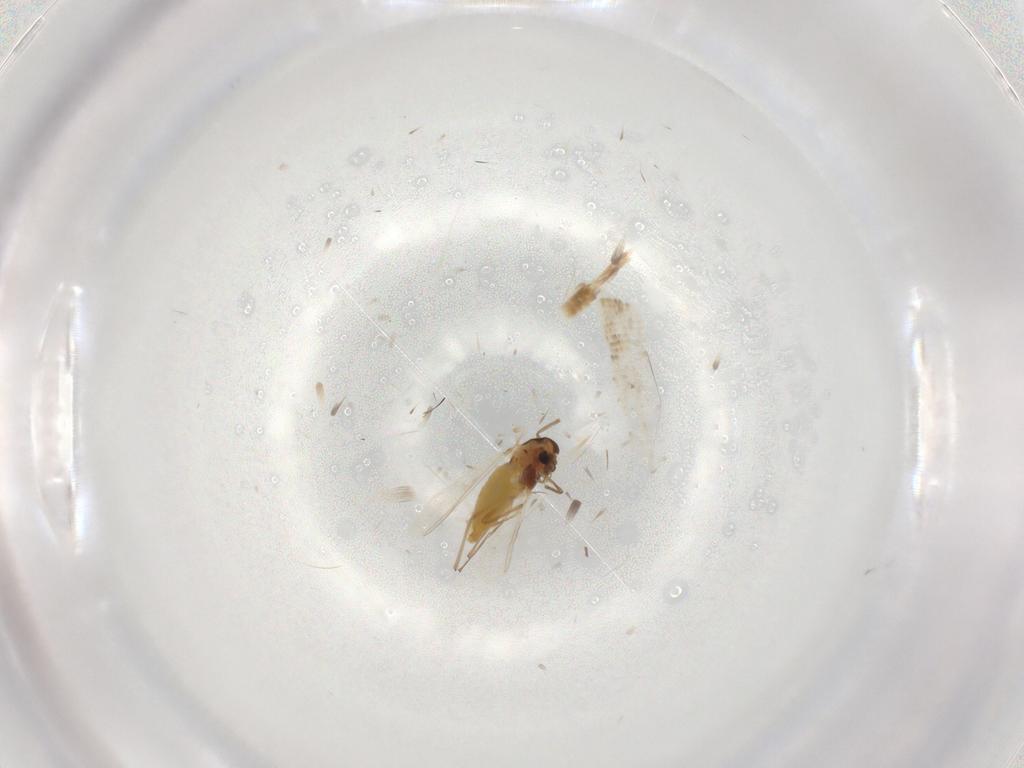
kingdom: Animalia
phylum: Arthropoda
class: Insecta
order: Diptera
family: Chironomidae
